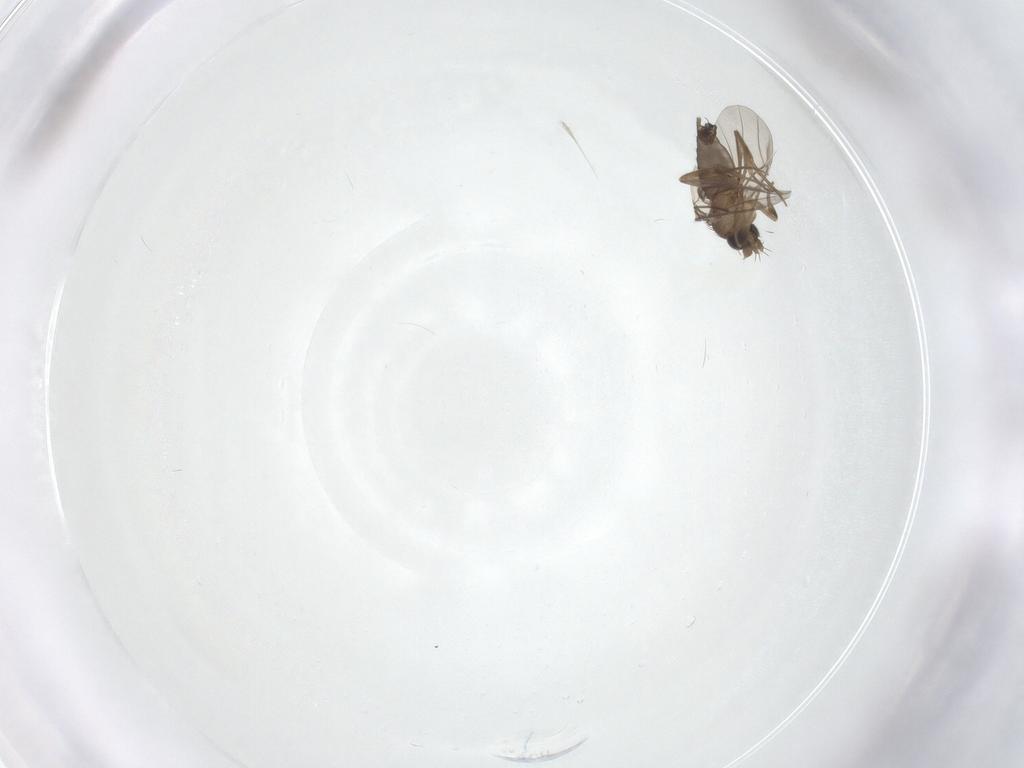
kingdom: Animalia
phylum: Arthropoda
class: Insecta
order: Diptera
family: Phoridae
